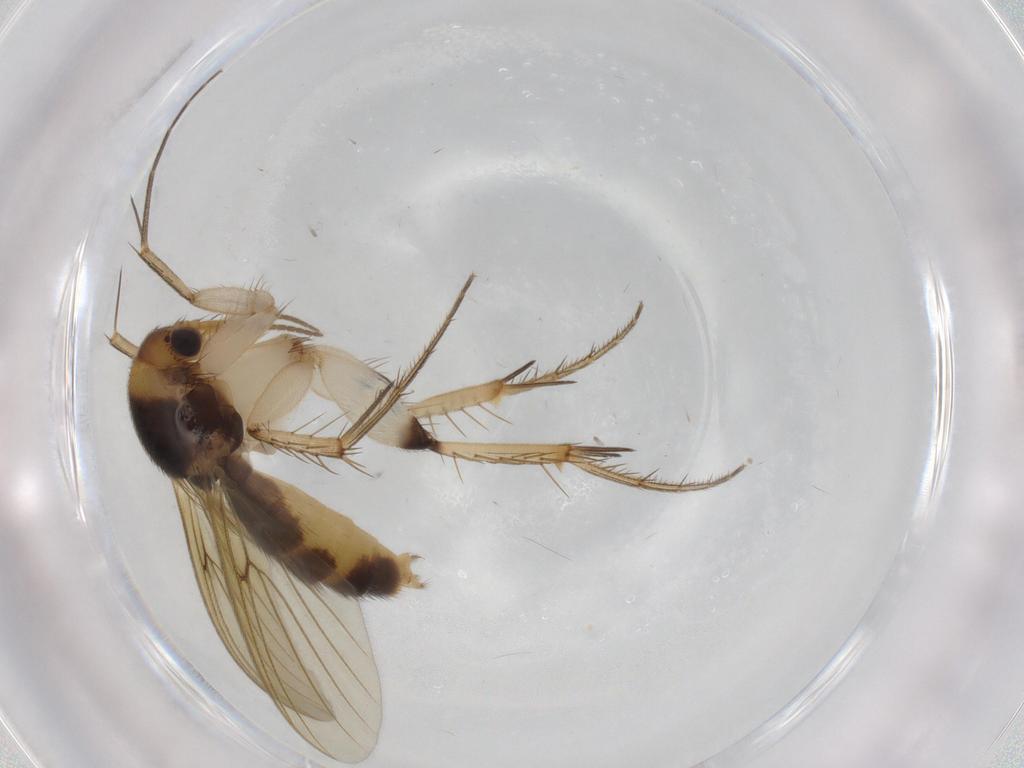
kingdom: Animalia
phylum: Arthropoda
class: Insecta
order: Diptera
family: Mycetophilidae
